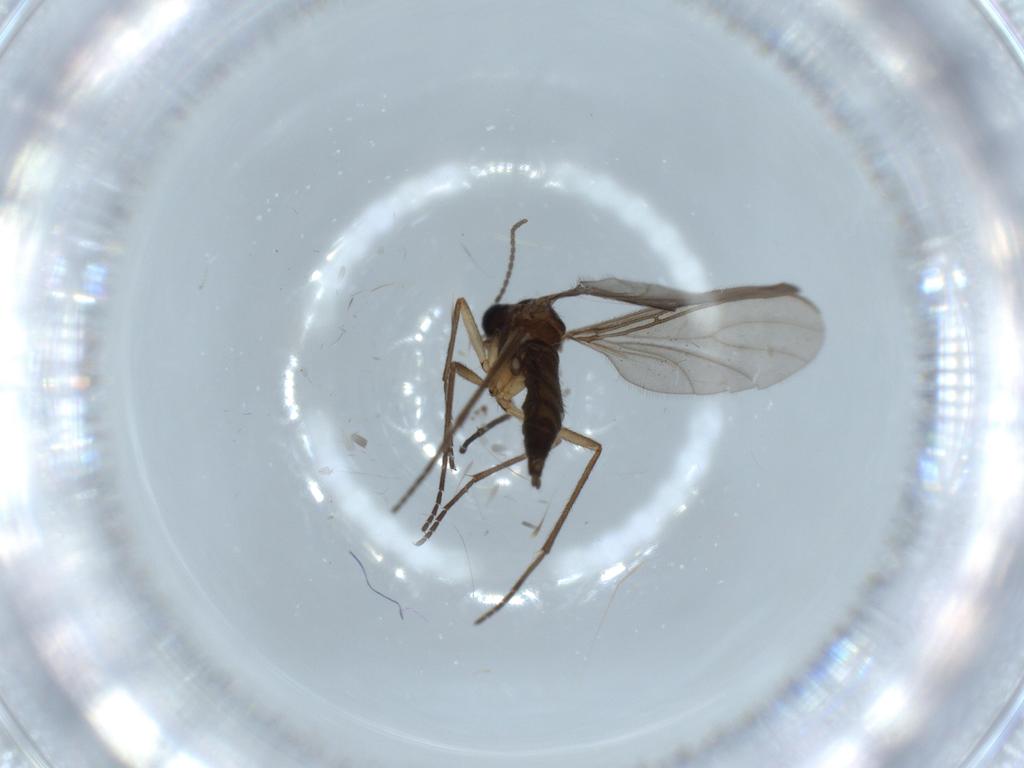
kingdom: Animalia
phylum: Arthropoda
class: Insecta
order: Diptera
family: Sciaridae
